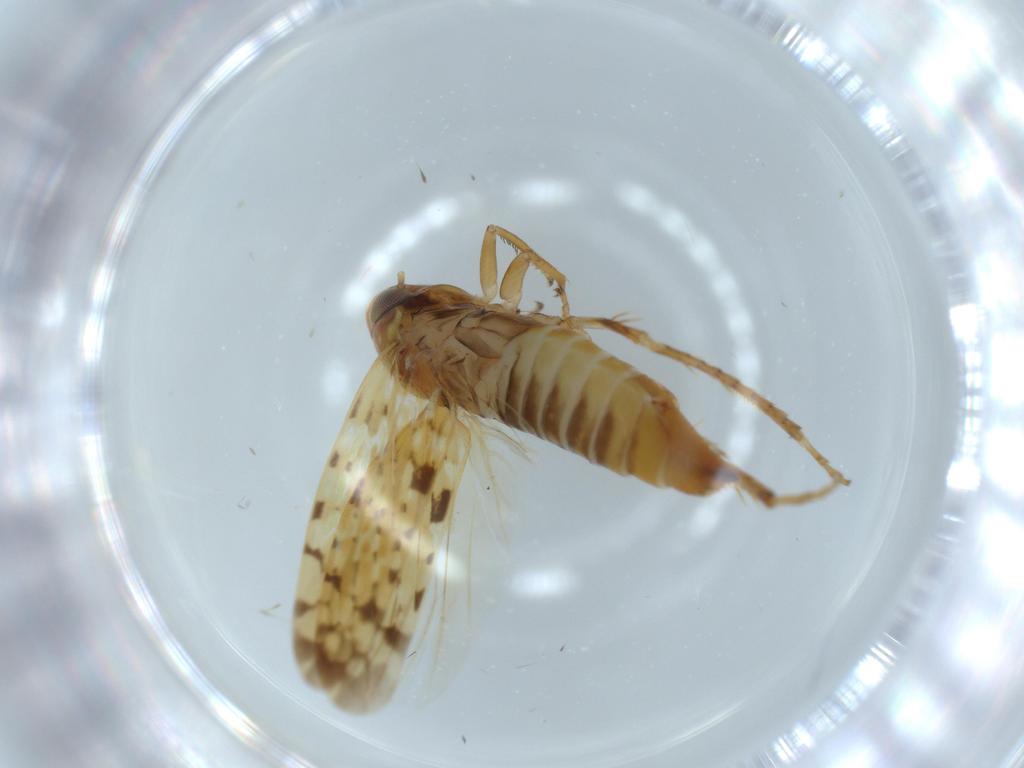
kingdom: Animalia
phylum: Arthropoda
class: Insecta
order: Hemiptera
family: Cicadellidae
